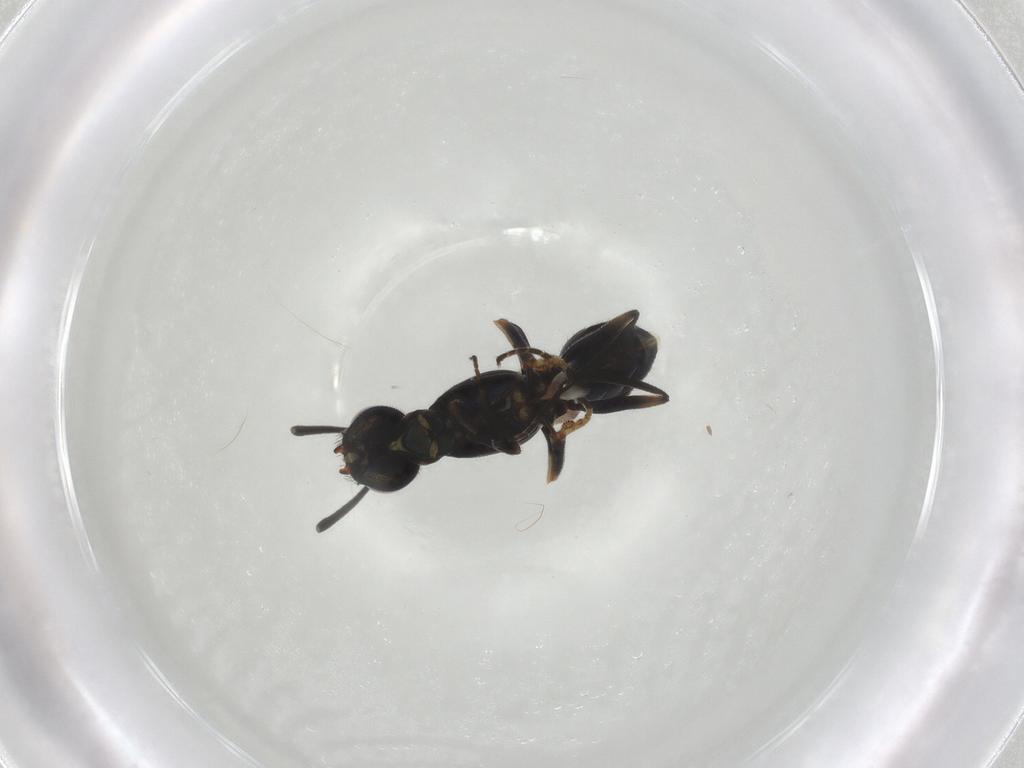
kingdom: Animalia
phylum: Arthropoda
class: Insecta
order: Hymenoptera
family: Eupelmidae
